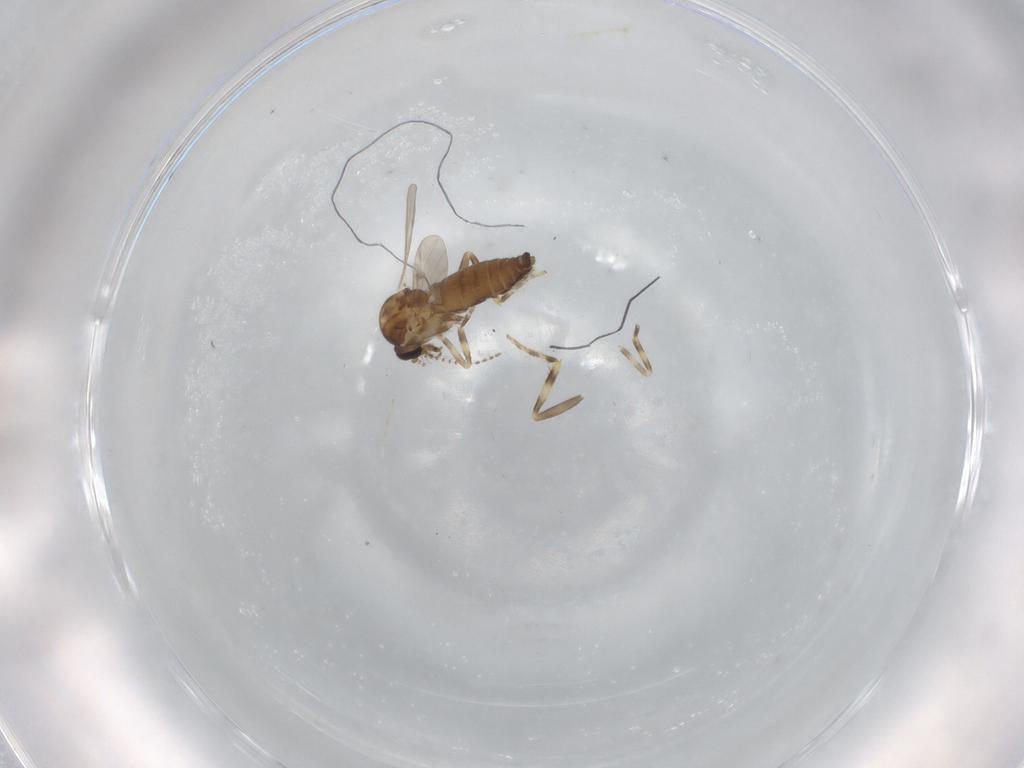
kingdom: Animalia
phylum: Arthropoda
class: Insecta
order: Diptera
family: Ceratopogonidae
